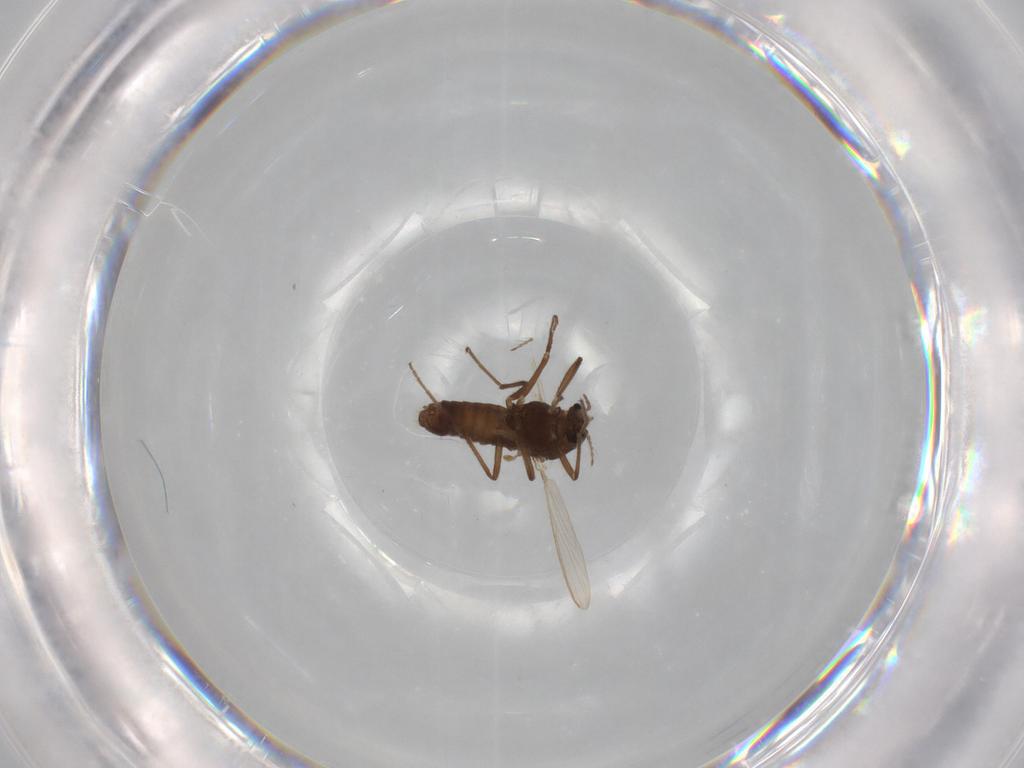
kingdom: Animalia
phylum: Arthropoda
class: Insecta
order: Diptera
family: Chironomidae
